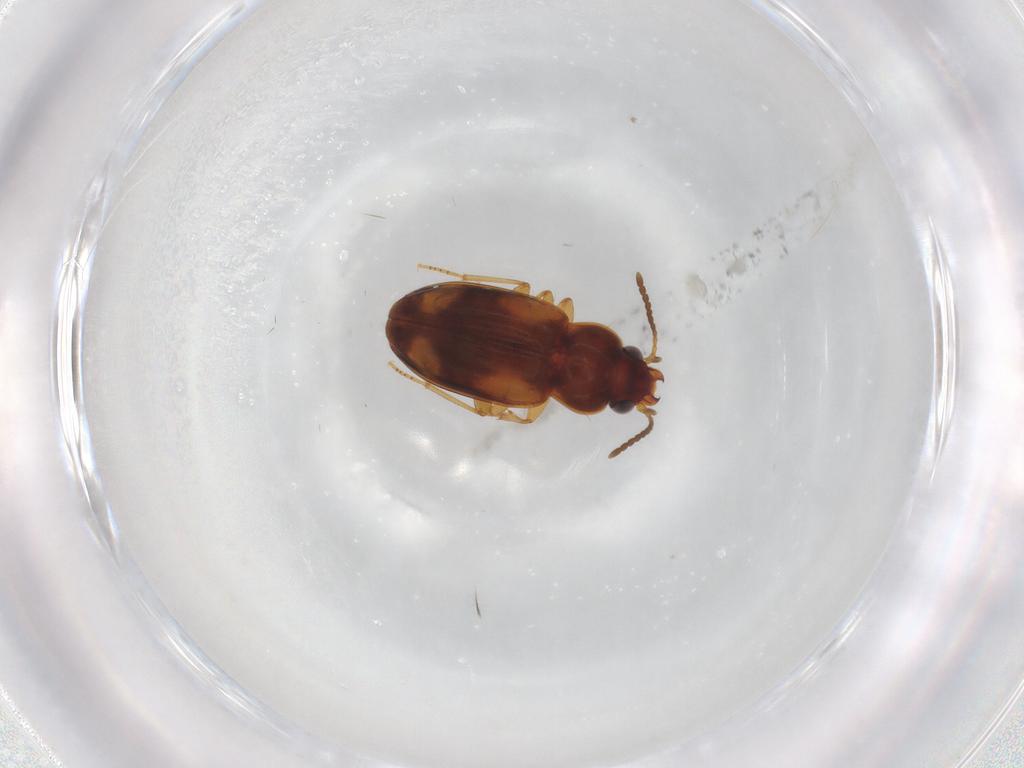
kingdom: Animalia
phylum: Arthropoda
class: Insecta
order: Coleoptera
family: Carabidae
